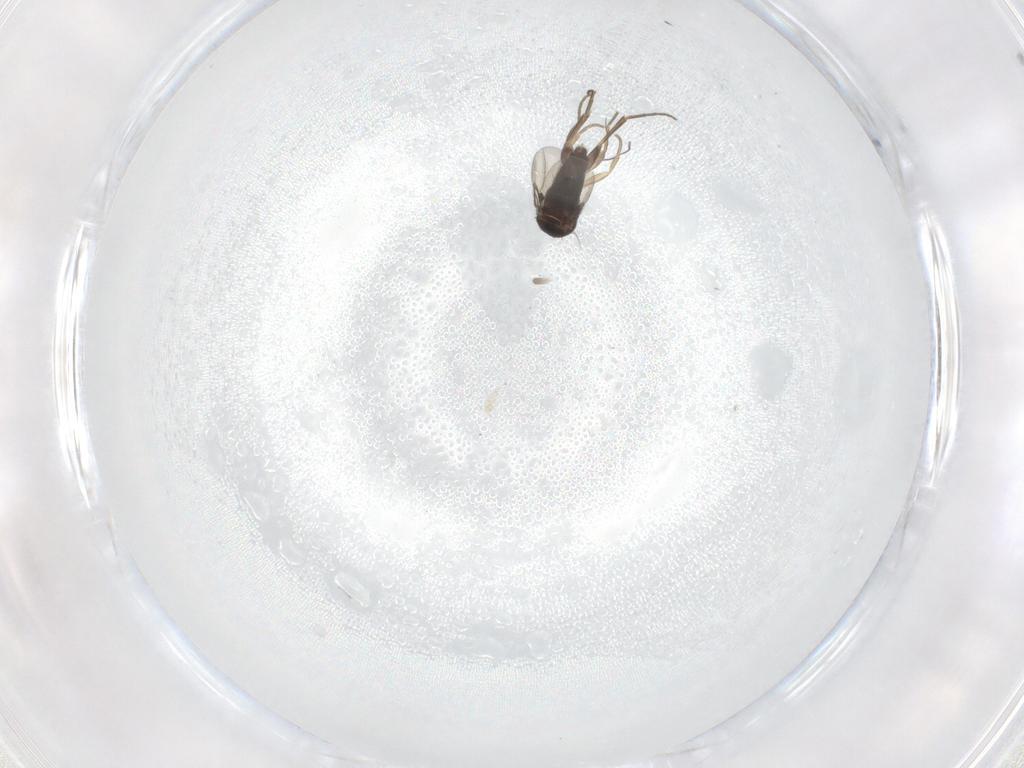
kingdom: Animalia
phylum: Arthropoda
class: Insecta
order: Diptera
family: Phoridae
